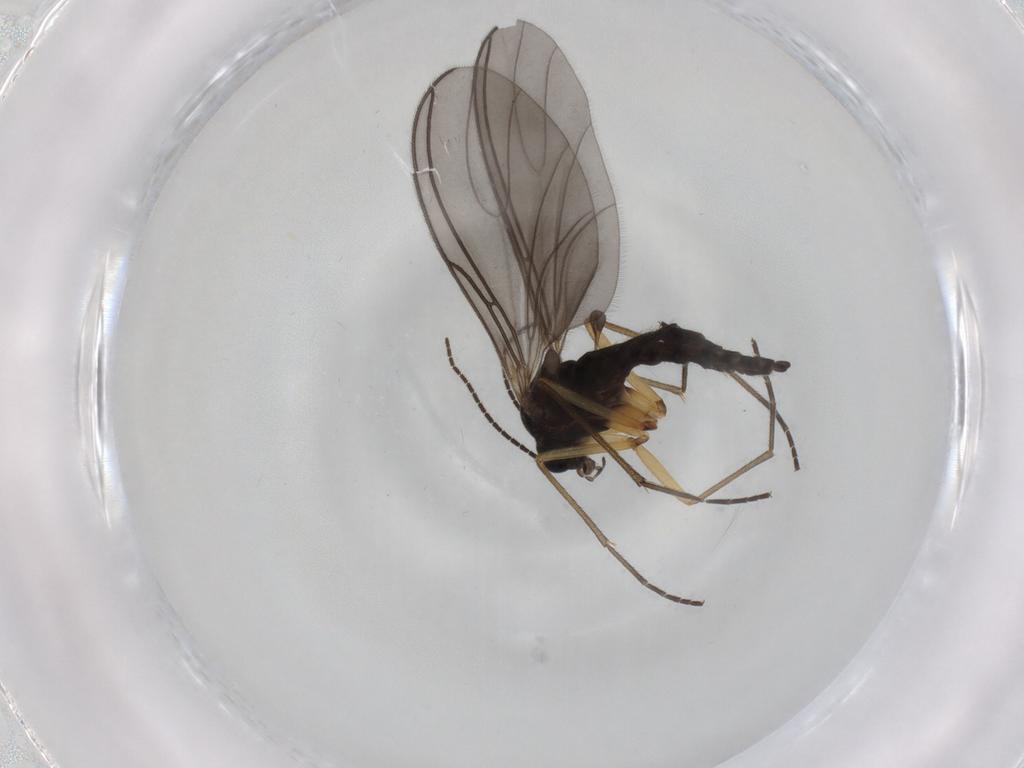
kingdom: Animalia
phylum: Arthropoda
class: Insecta
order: Diptera
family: Sciaridae
